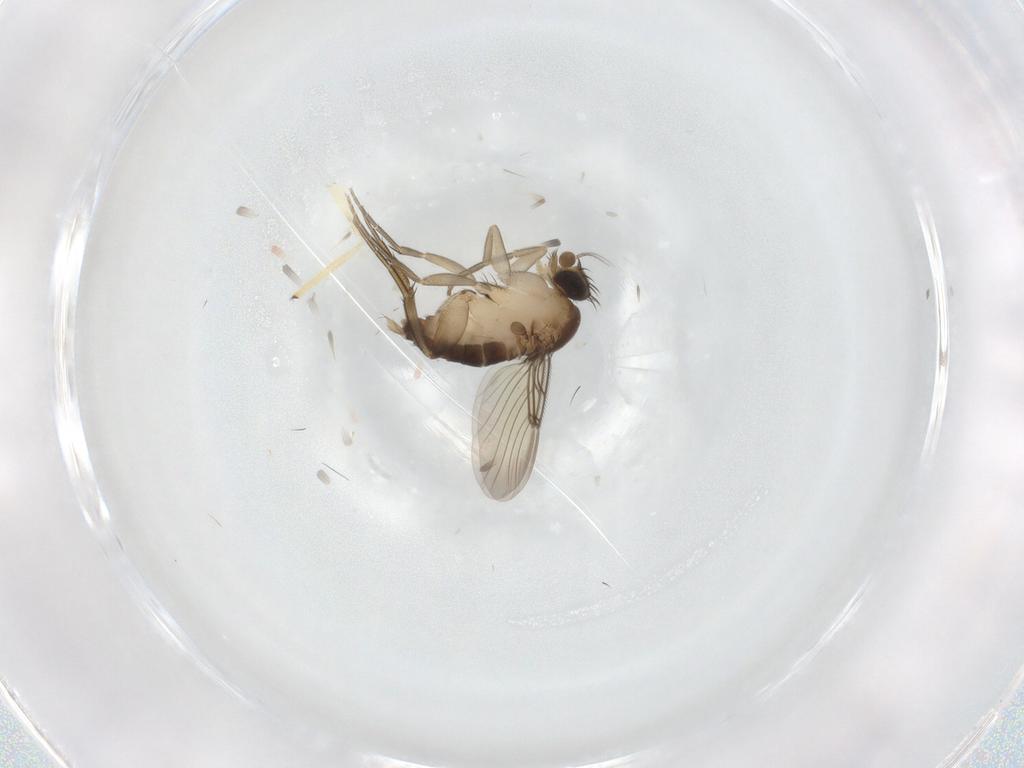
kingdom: Animalia
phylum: Arthropoda
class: Insecta
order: Diptera
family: Chironomidae
